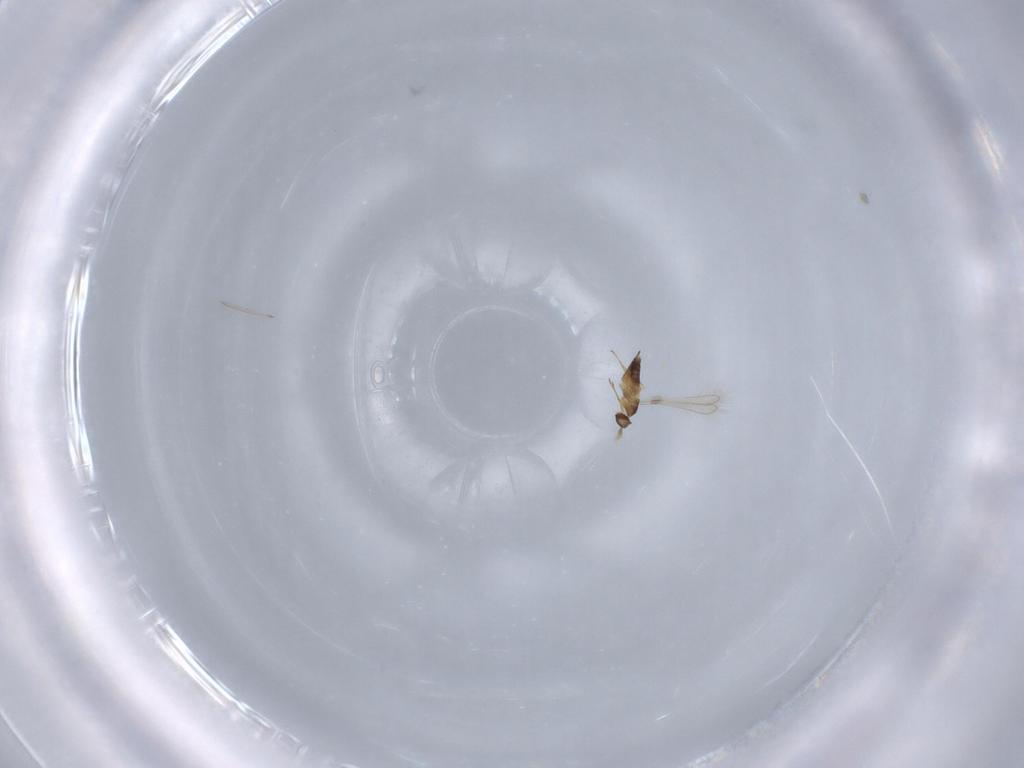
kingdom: Animalia
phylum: Arthropoda
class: Insecta
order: Hymenoptera
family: Ichneumonidae
